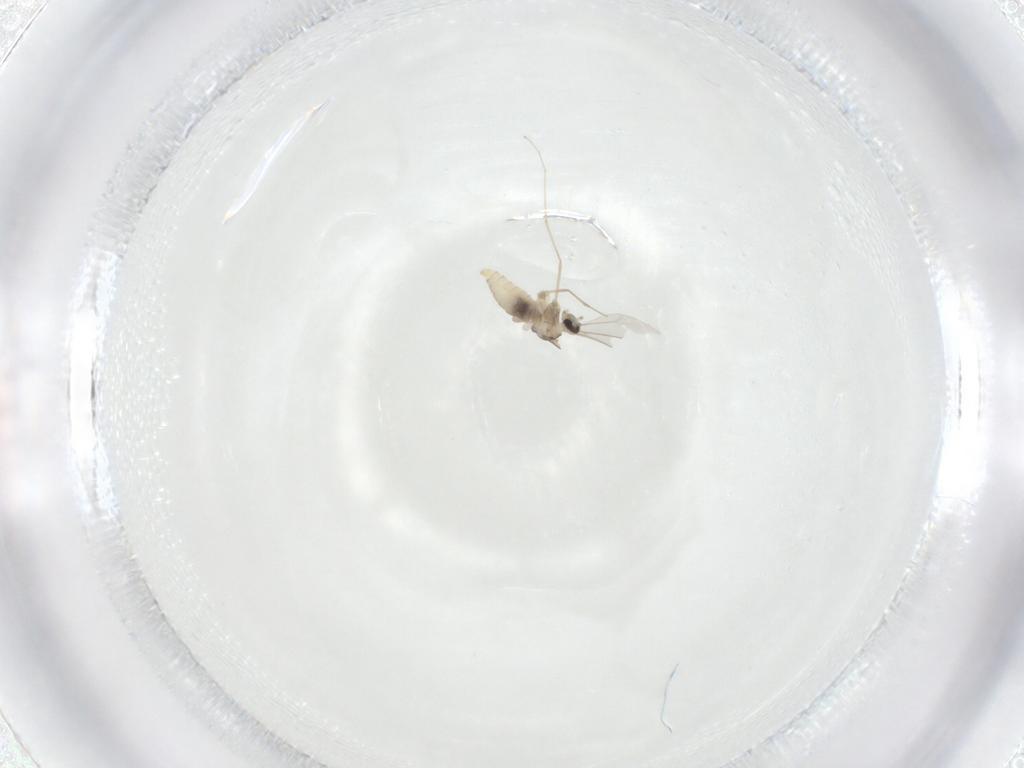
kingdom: Animalia
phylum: Arthropoda
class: Insecta
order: Diptera
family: Cecidomyiidae
